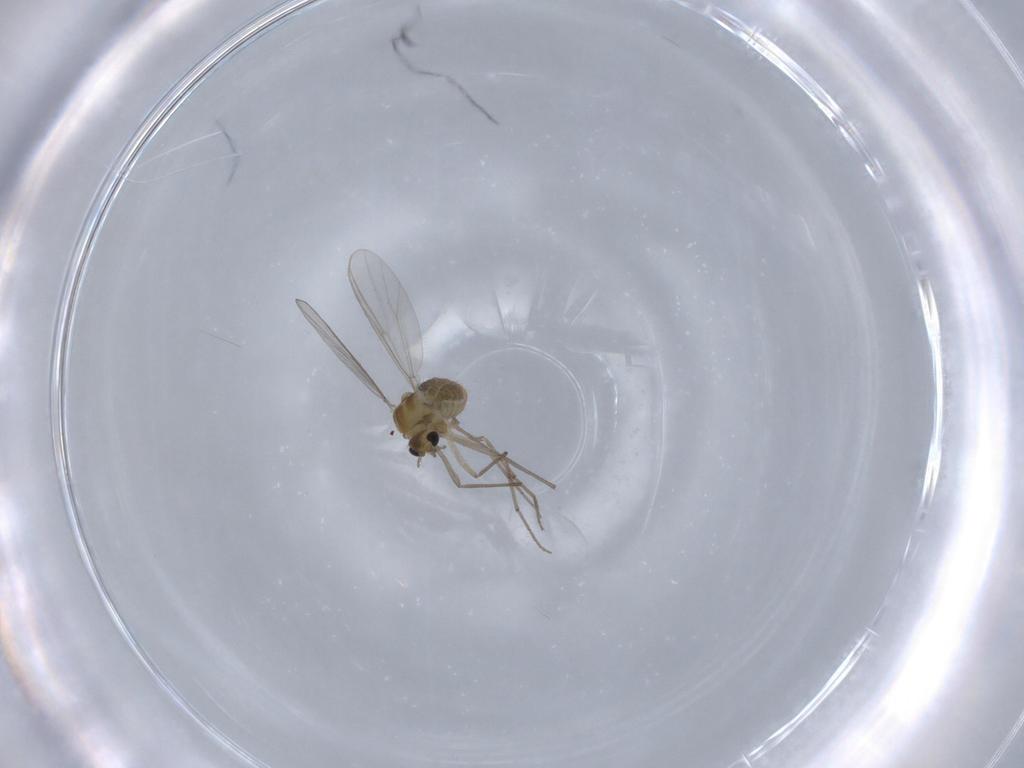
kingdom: Animalia
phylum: Arthropoda
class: Insecta
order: Diptera
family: Chironomidae
